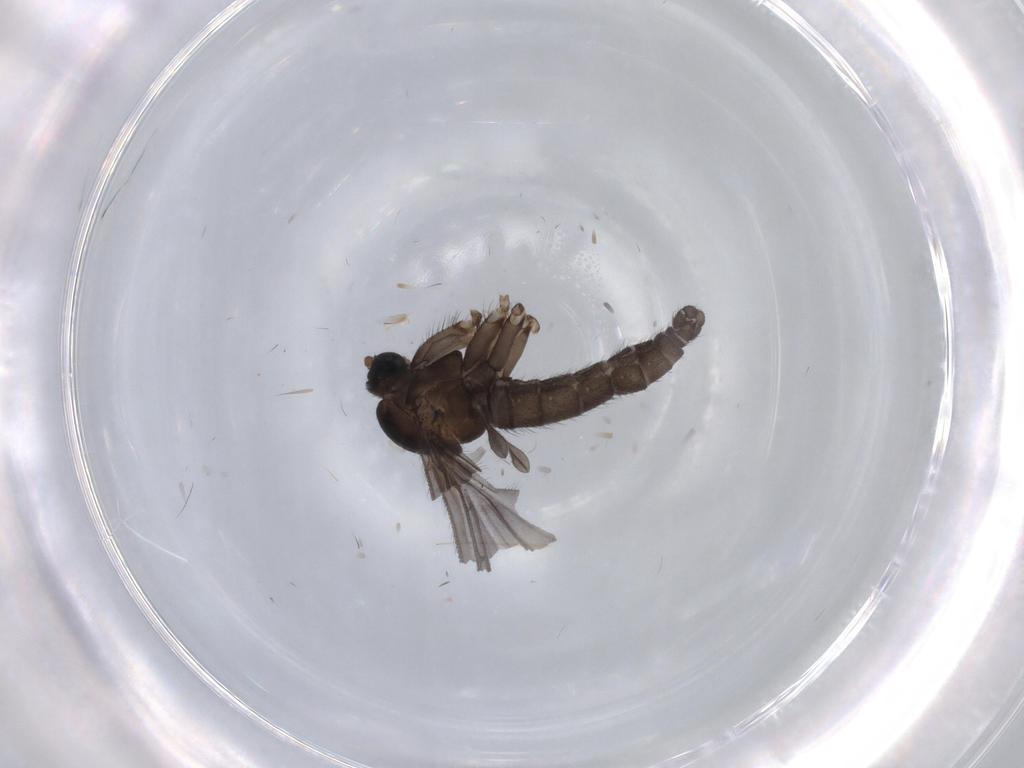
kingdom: Animalia
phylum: Arthropoda
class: Insecta
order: Diptera
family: Sciaridae
